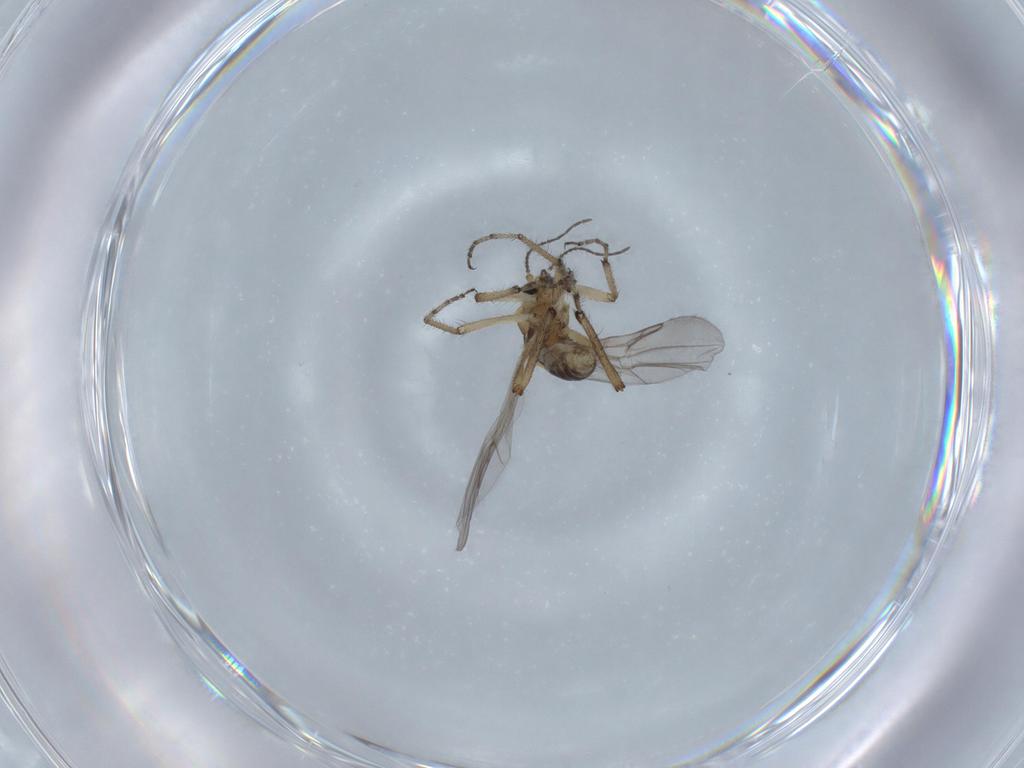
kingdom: Animalia
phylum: Arthropoda
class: Insecta
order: Diptera
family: Ceratopogonidae
